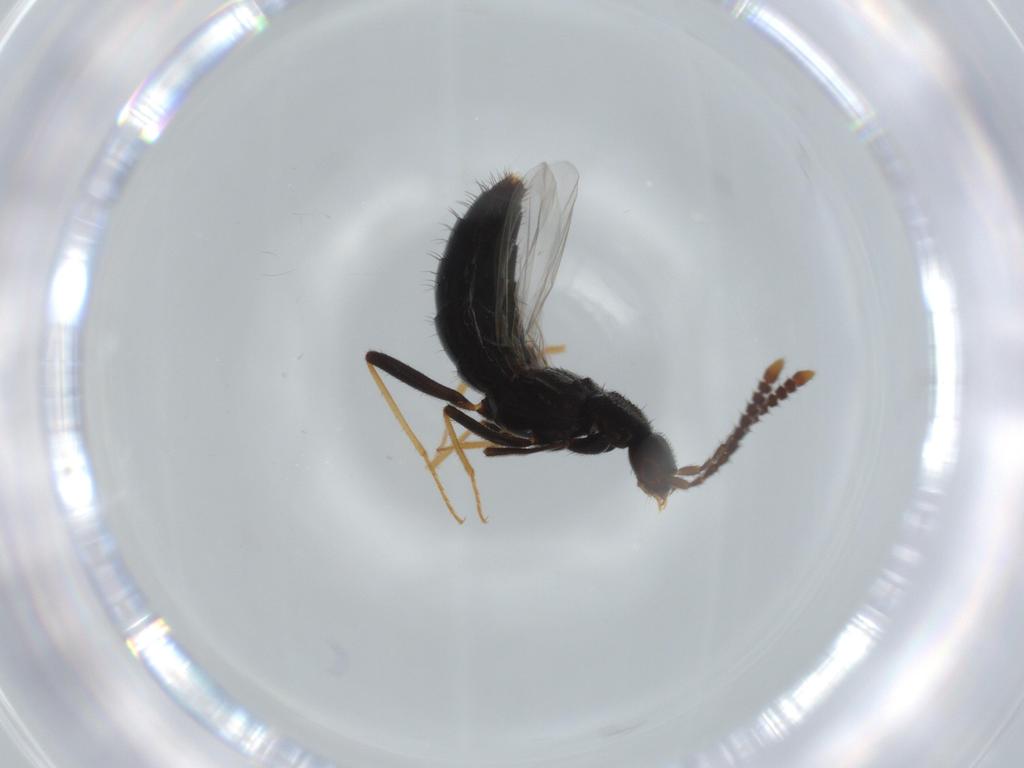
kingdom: Animalia
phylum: Arthropoda
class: Insecta
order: Coleoptera
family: Staphylinidae
